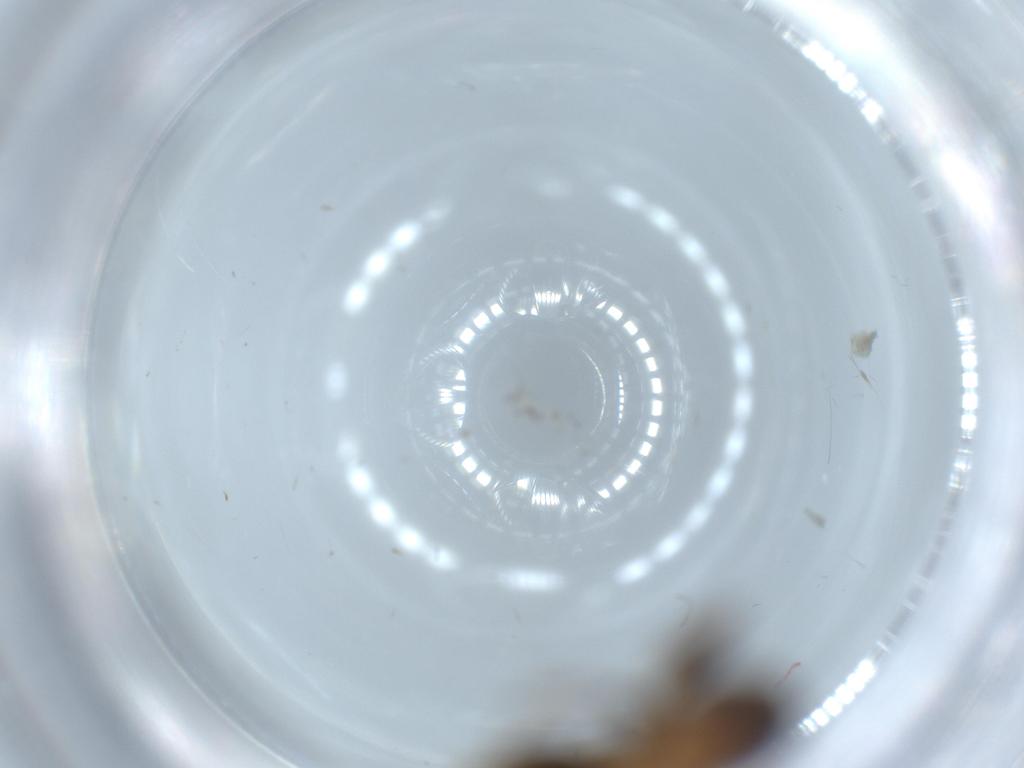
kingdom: Animalia
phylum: Arthropoda
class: Insecta
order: Hymenoptera
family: Formicidae
